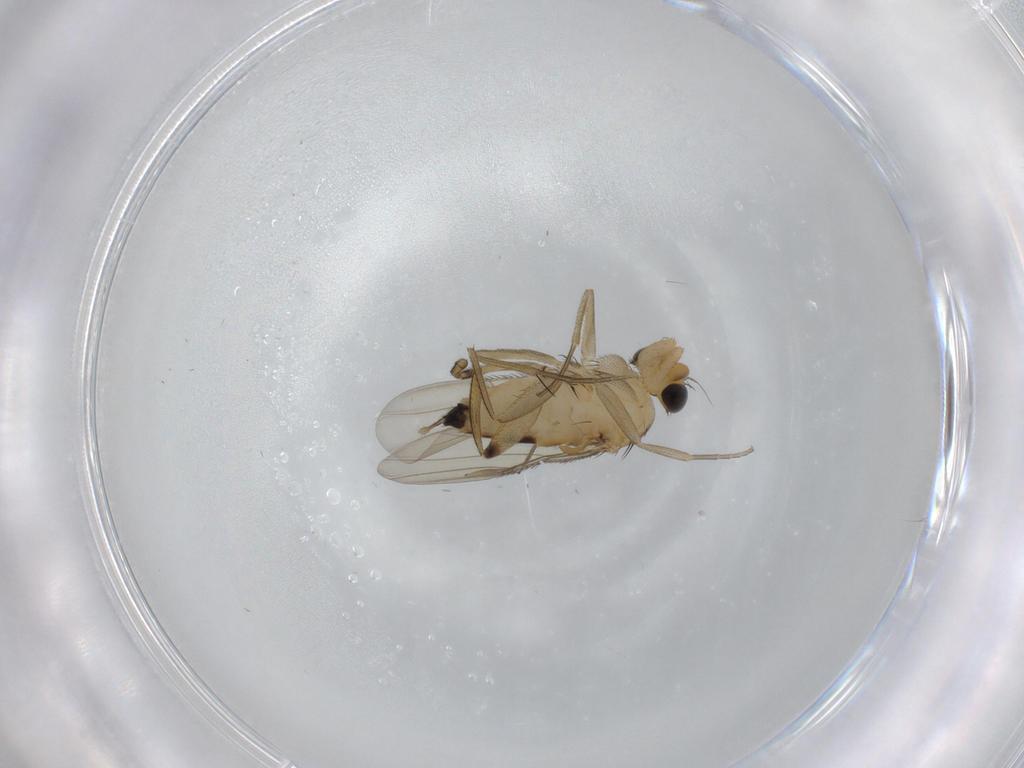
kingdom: Animalia
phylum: Arthropoda
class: Insecta
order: Diptera
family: Phoridae
